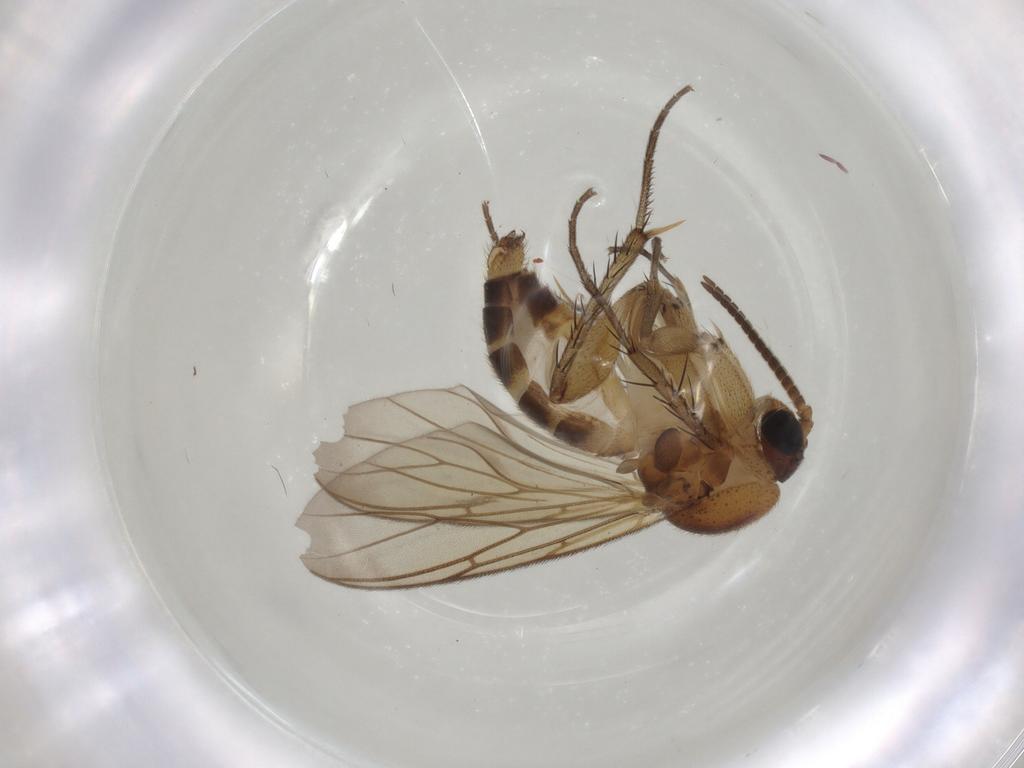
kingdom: Animalia
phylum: Arthropoda
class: Insecta
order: Diptera
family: Mycetophilidae
